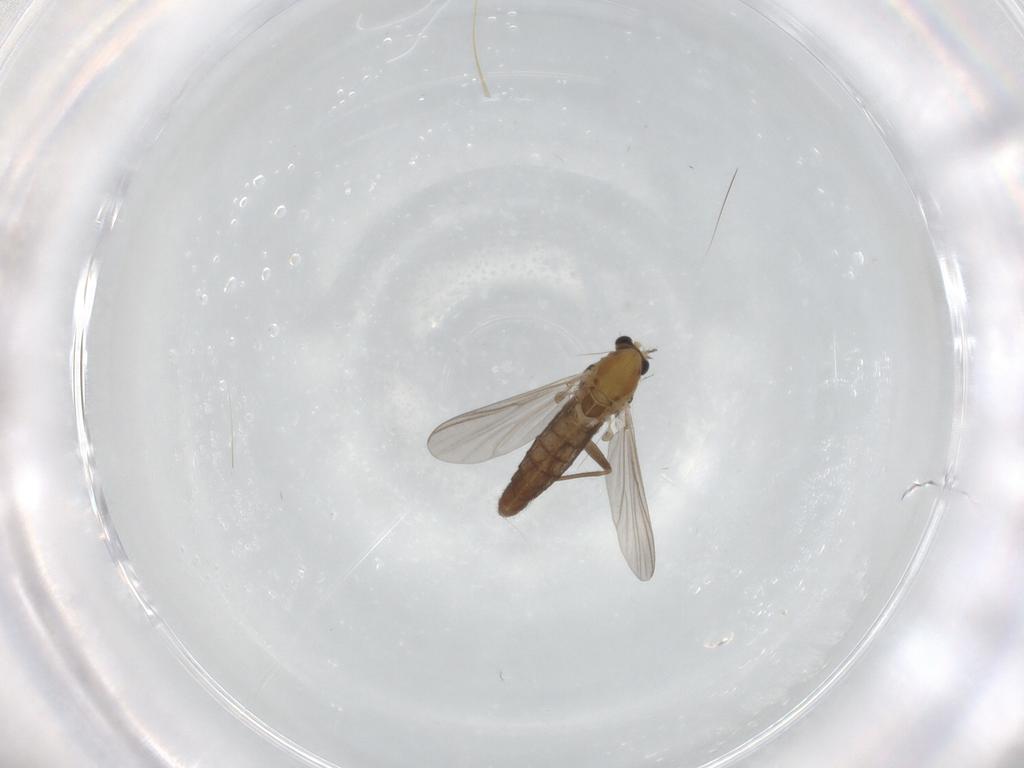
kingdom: Animalia
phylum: Arthropoda
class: Insecta
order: Diptera
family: Chironomidae
